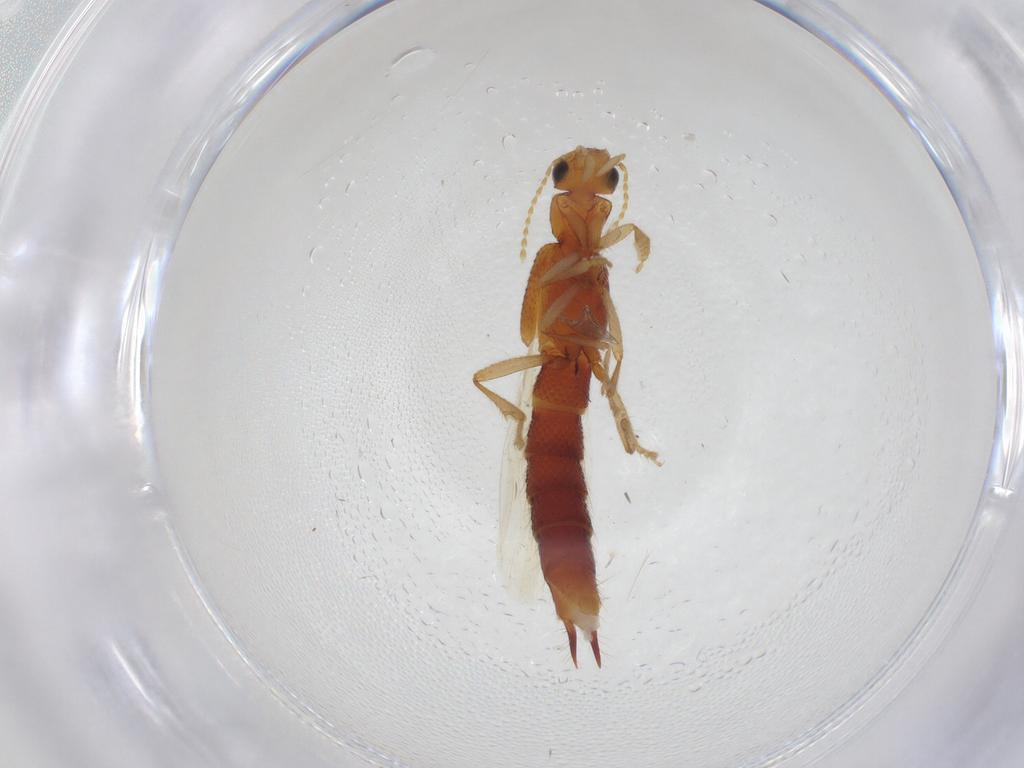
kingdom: Animalia
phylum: Arthropoda
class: Insecta
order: Coleoptera
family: Staphylinidae
